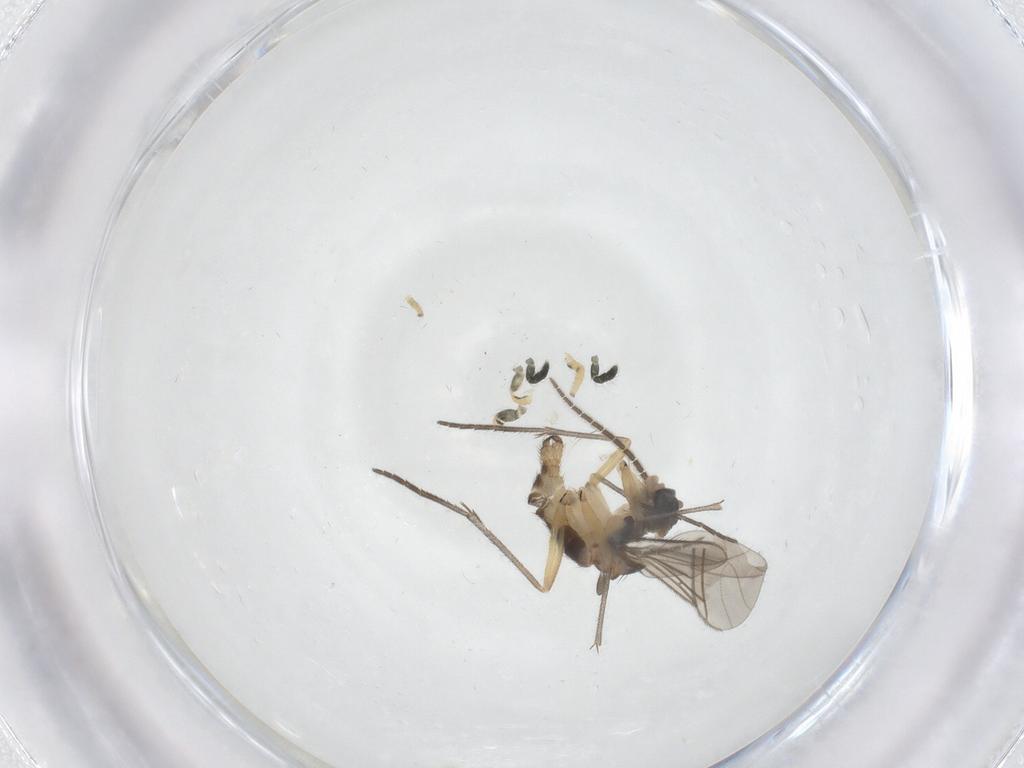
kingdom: Animalia
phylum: Arthropoda
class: Insecta
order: Diptera
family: Sciaridae
